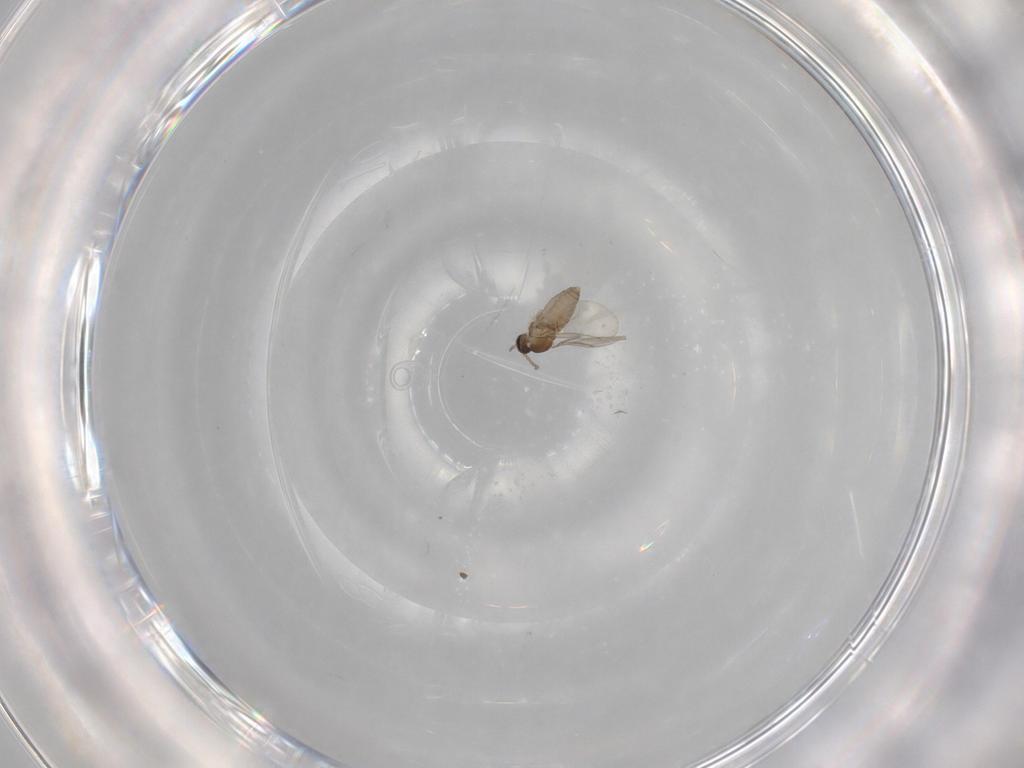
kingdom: Animalia
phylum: Arthropoda
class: Insecta
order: Diptera
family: Cecidomyiidae
